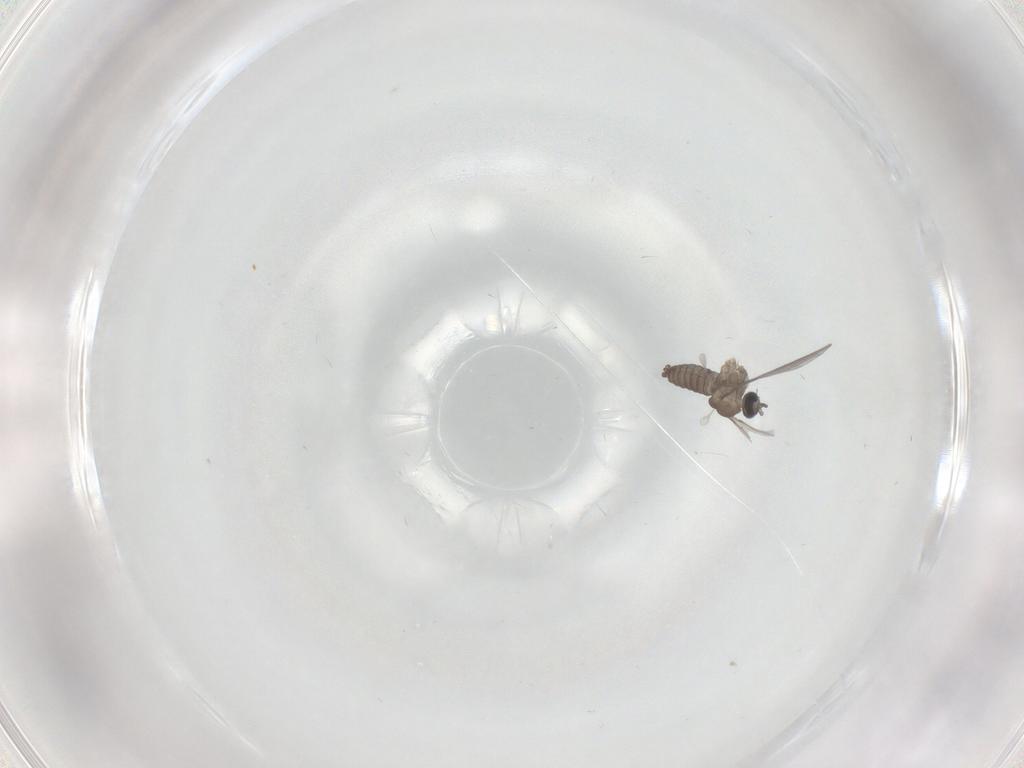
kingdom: Animalia
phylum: Arthropoda
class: Insecta
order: Diptera
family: Cecidomyiidae
